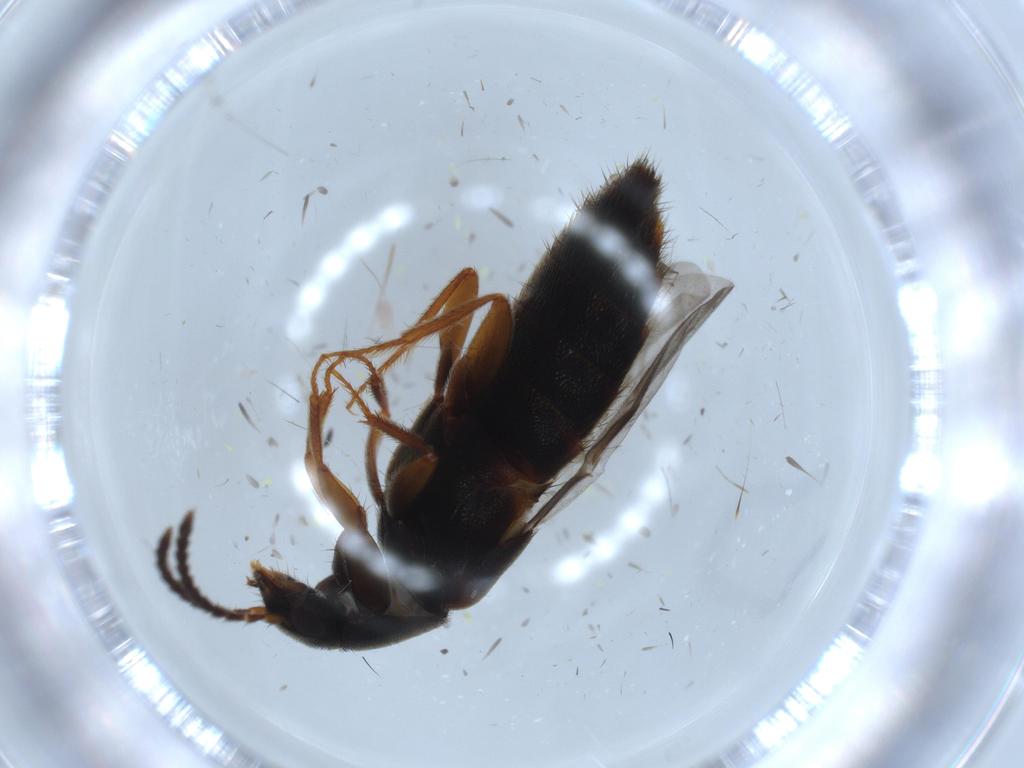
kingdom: Animalia
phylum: Arthropoda
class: Insecta
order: Coleoptera
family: Staphylinidae
